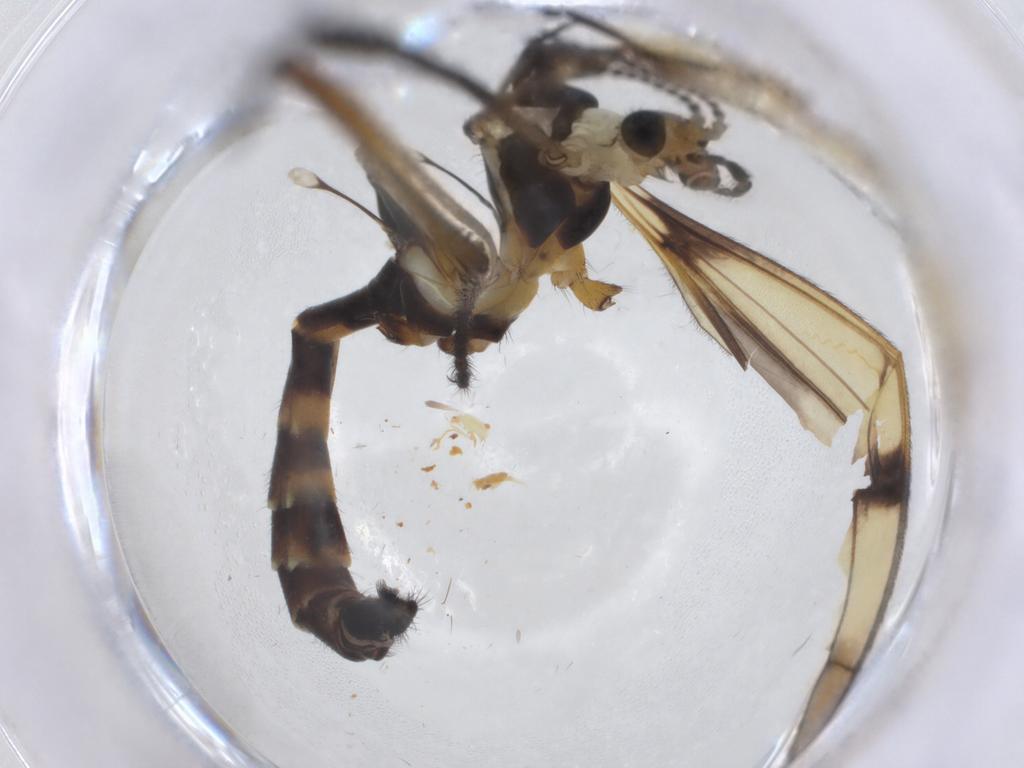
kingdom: Animalia
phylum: Arthropoda
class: Insecta
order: Diptera
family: Limoniidae
